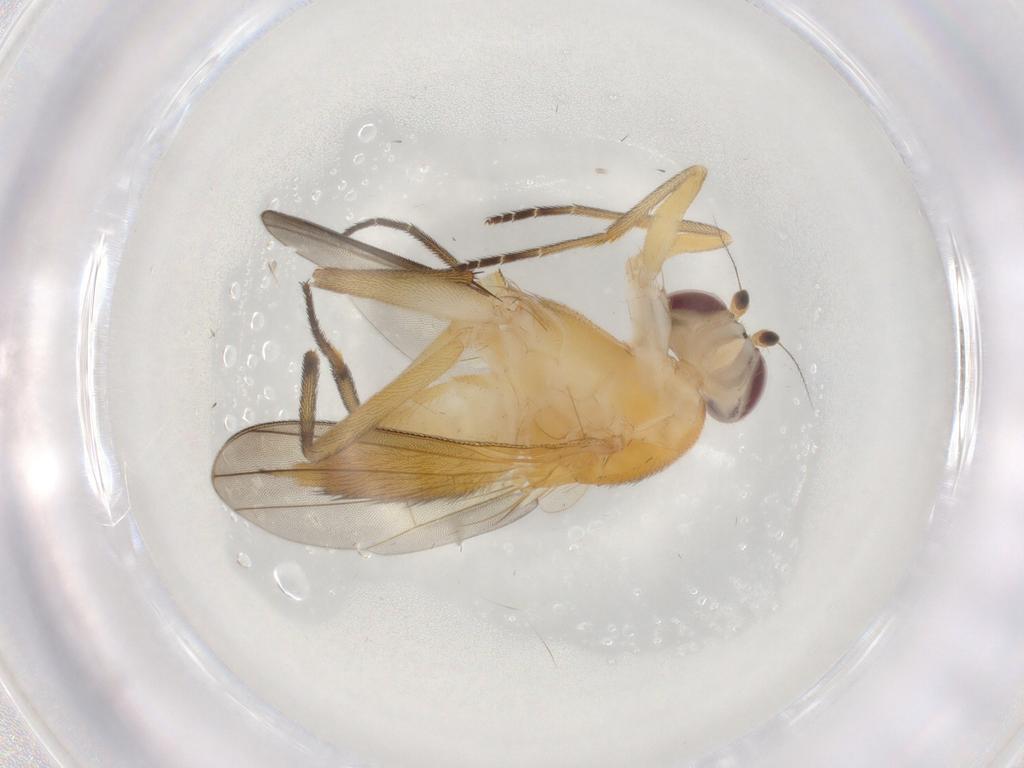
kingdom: Animalia
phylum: Arthropoda
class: Insecta
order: Diptera
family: Clusiidae
